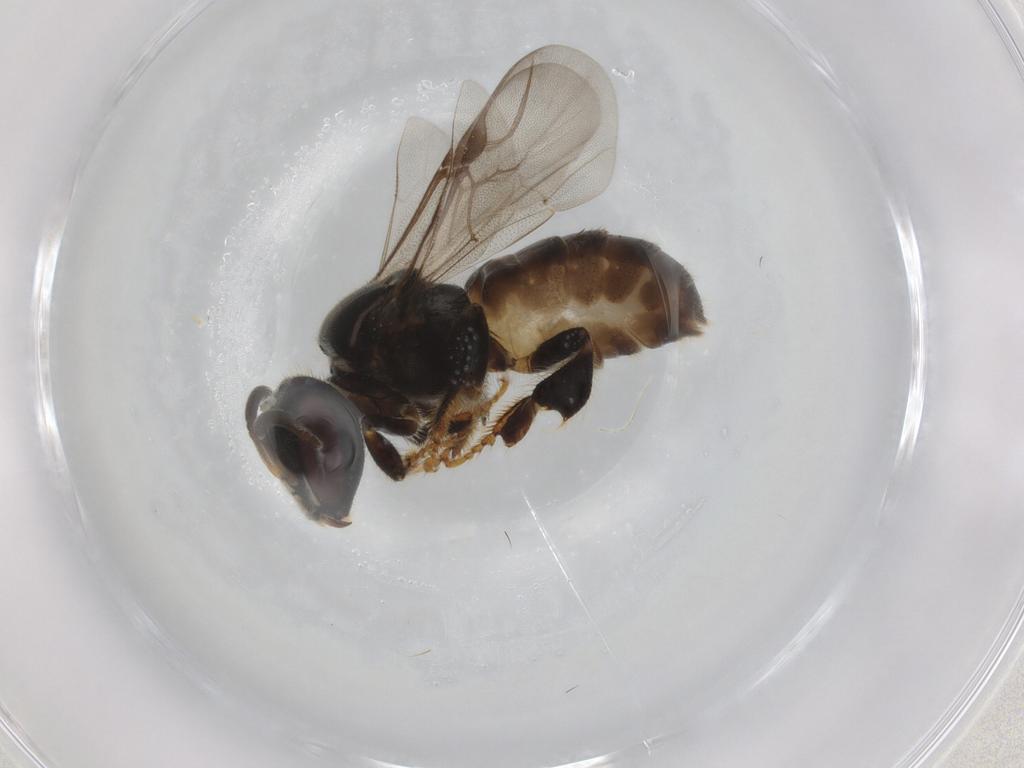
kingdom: Animalia
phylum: Arthropoda
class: Insecta
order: Hymenoptera
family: Apidae
